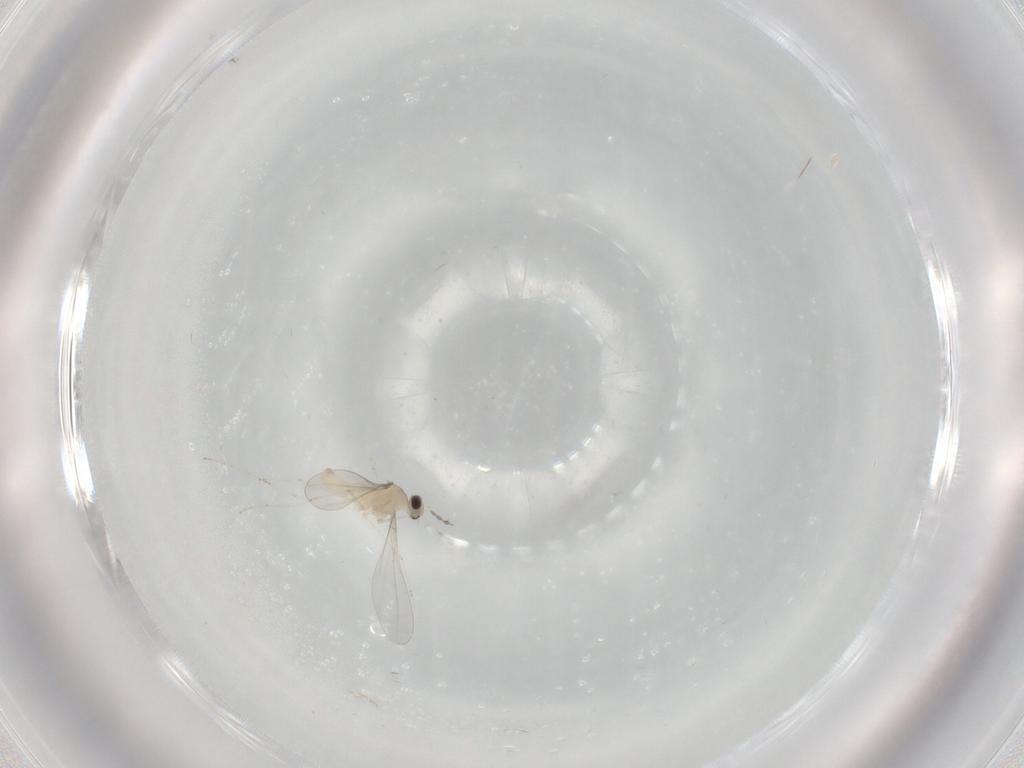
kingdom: Animalia
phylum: Arthropoda
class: Insecta
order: Diptera
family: Cecidomyiidae
